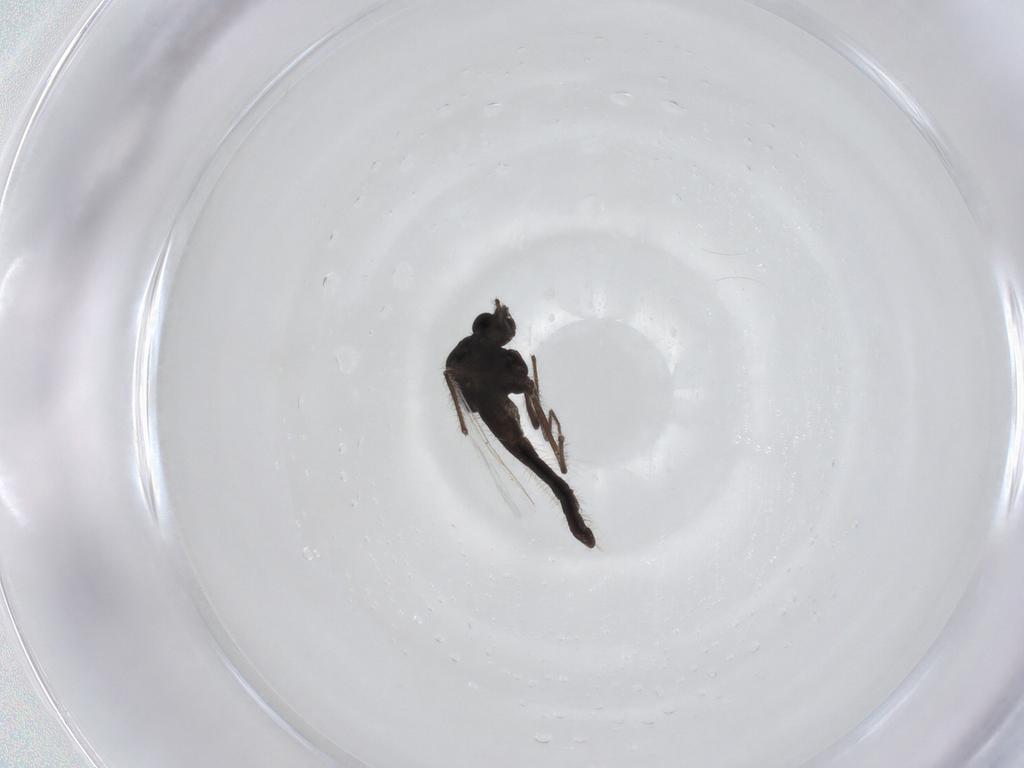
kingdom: Animalia
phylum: Arthropoda
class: Insecta
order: Diptera
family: Chironomidae
